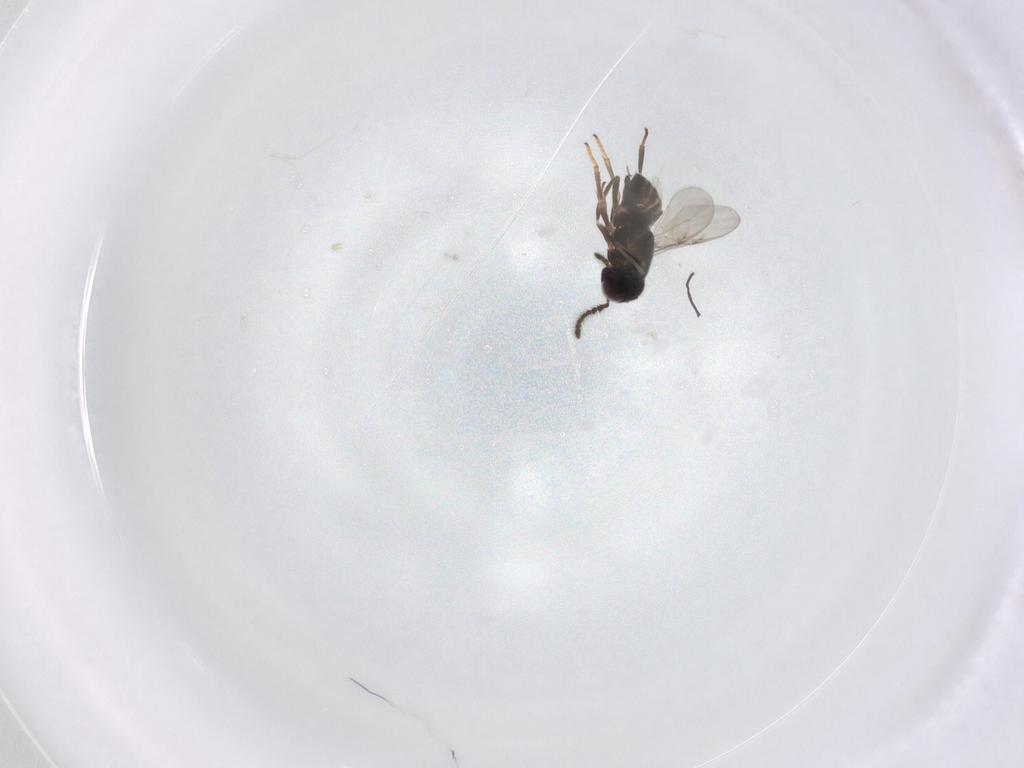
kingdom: Animalia
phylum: Arthropoda
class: Insecta
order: Hymenoptera
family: Encyrtidae
